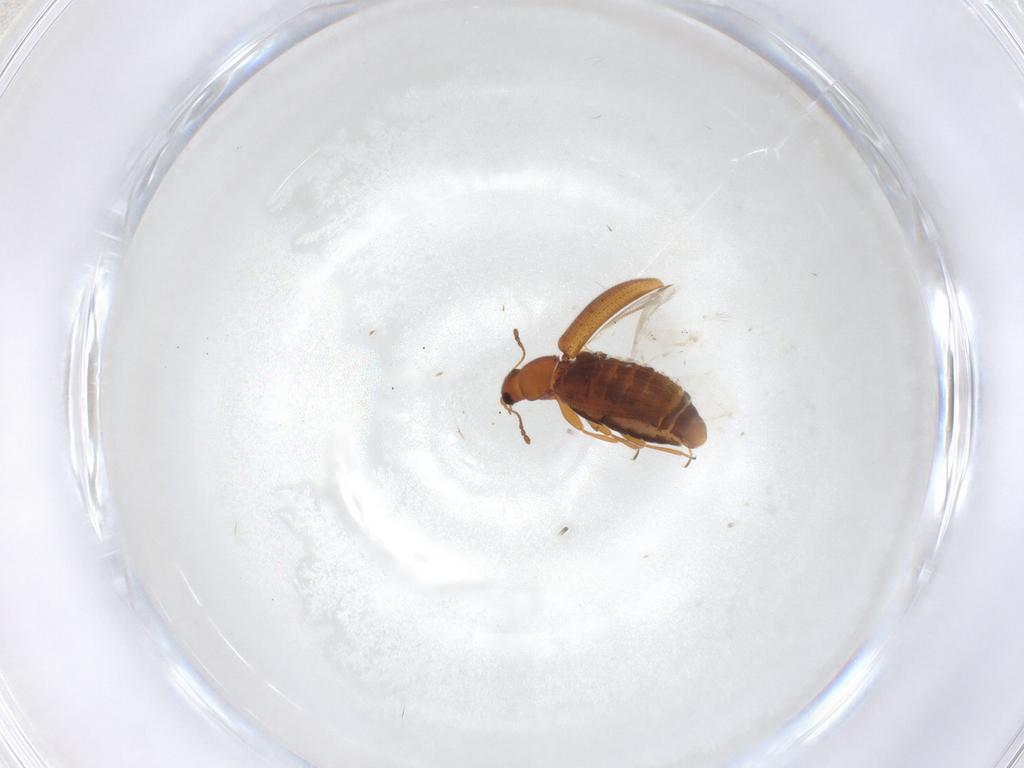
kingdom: Animalia
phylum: Arthropoda
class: Insecta
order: Coleoptera
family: Latridiidae
